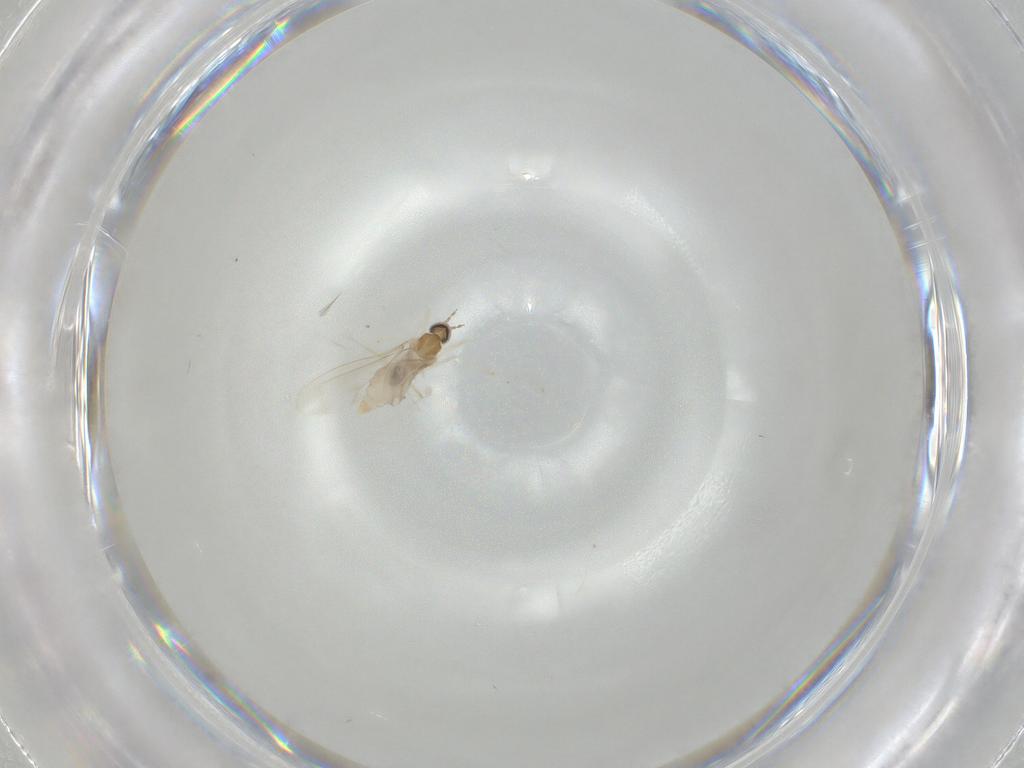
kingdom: Animalia
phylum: Arthropoda
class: Insecta
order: Diptera
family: Cecidomyiidae
